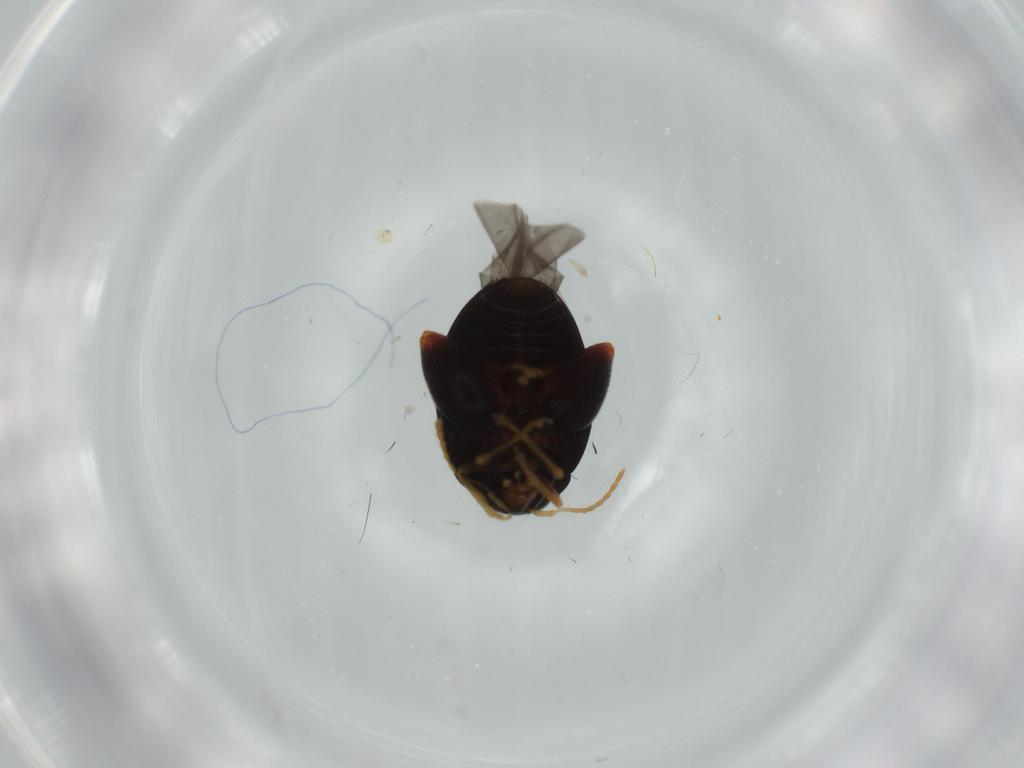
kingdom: Animalia
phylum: Arthropoda
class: Insecta
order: Coleoptera
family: Chrysomelidae
